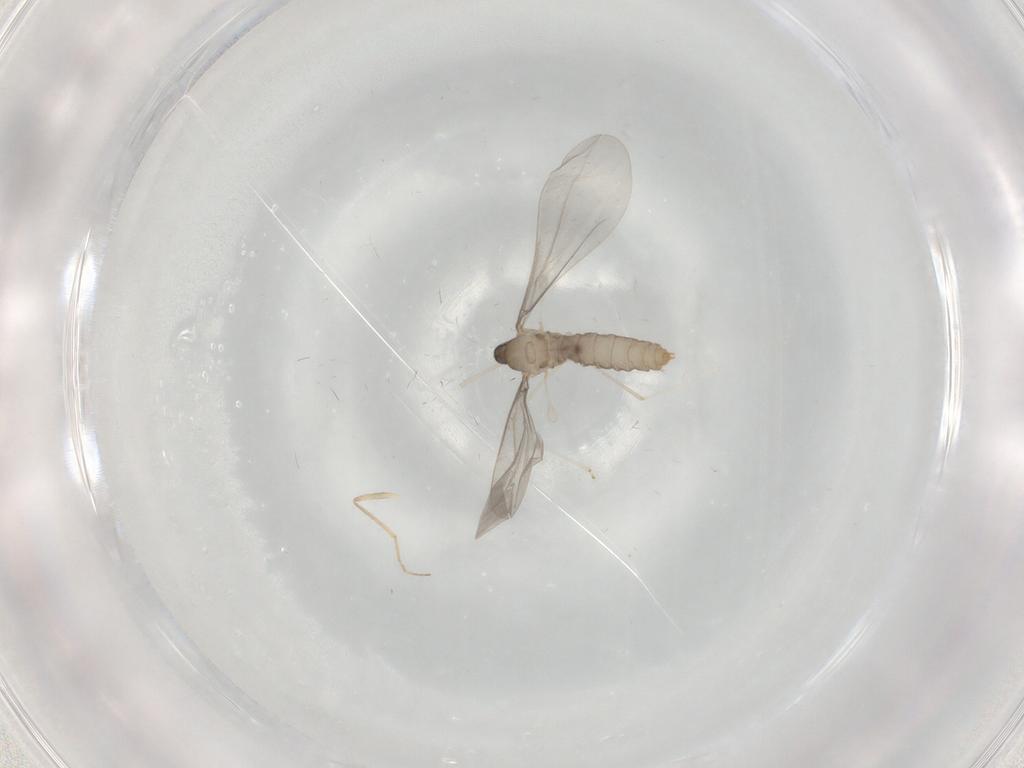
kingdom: Animalia
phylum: Arthropoda
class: Insecta
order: Diptera
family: Cecidomyiidae
